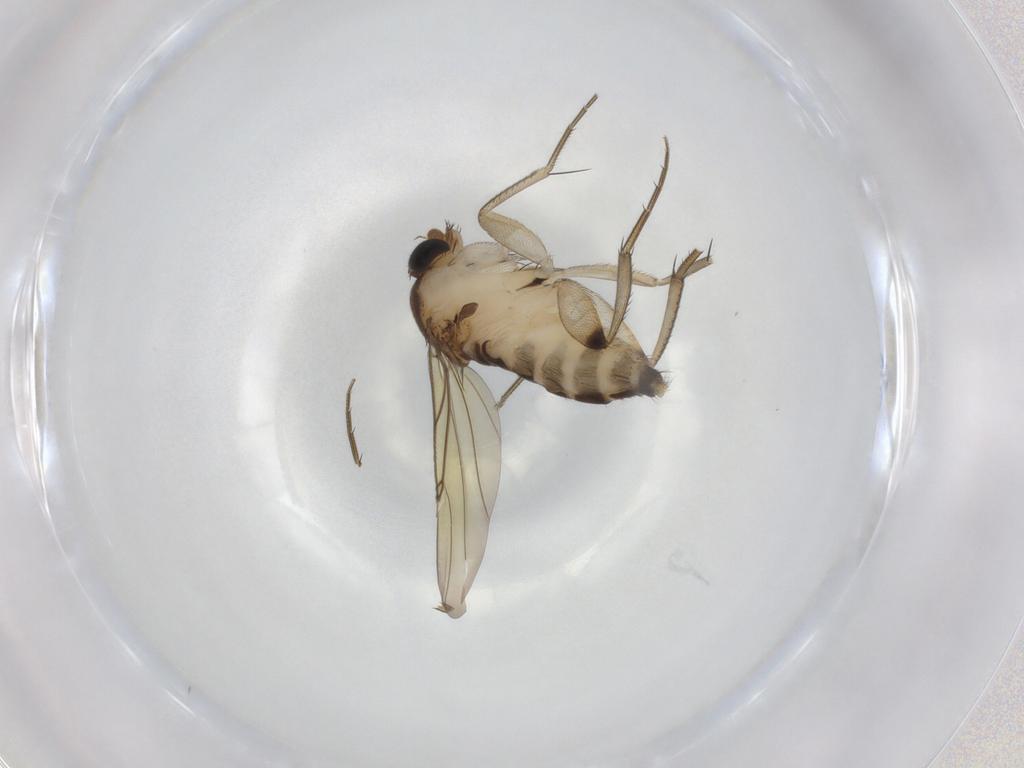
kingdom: Animalia
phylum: Arthropoda
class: Insecta
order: Diptera
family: Phoridae
